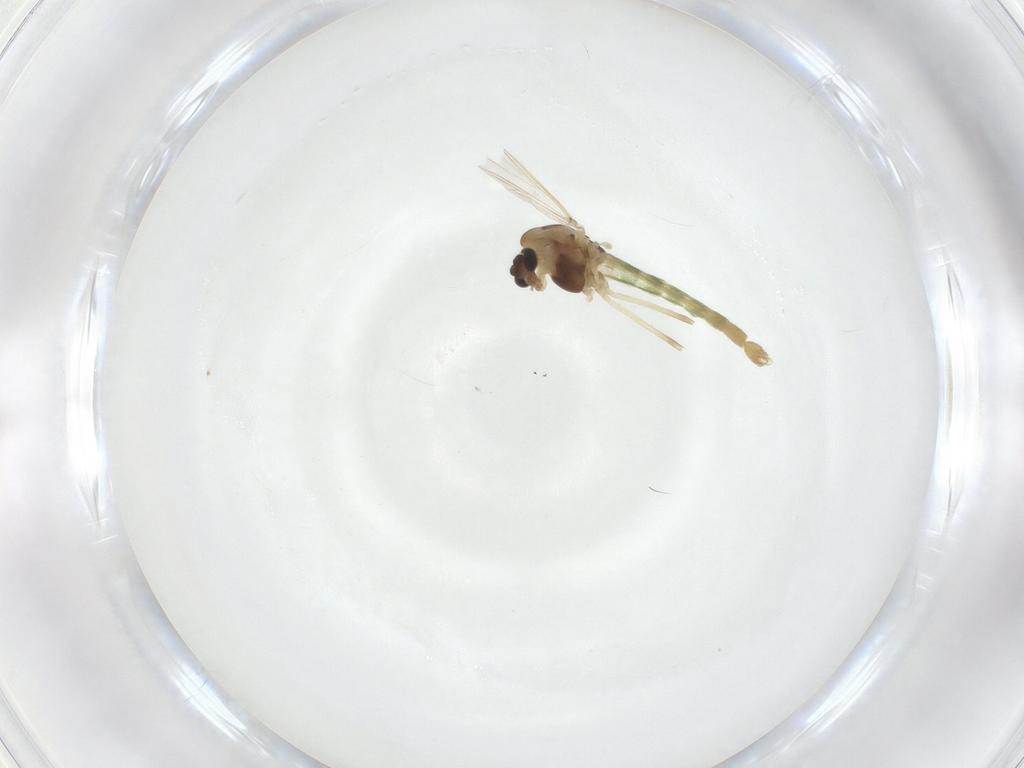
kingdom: Animalia
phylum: Arthropoda
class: Insecta
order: Diptera
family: Chironomidae
